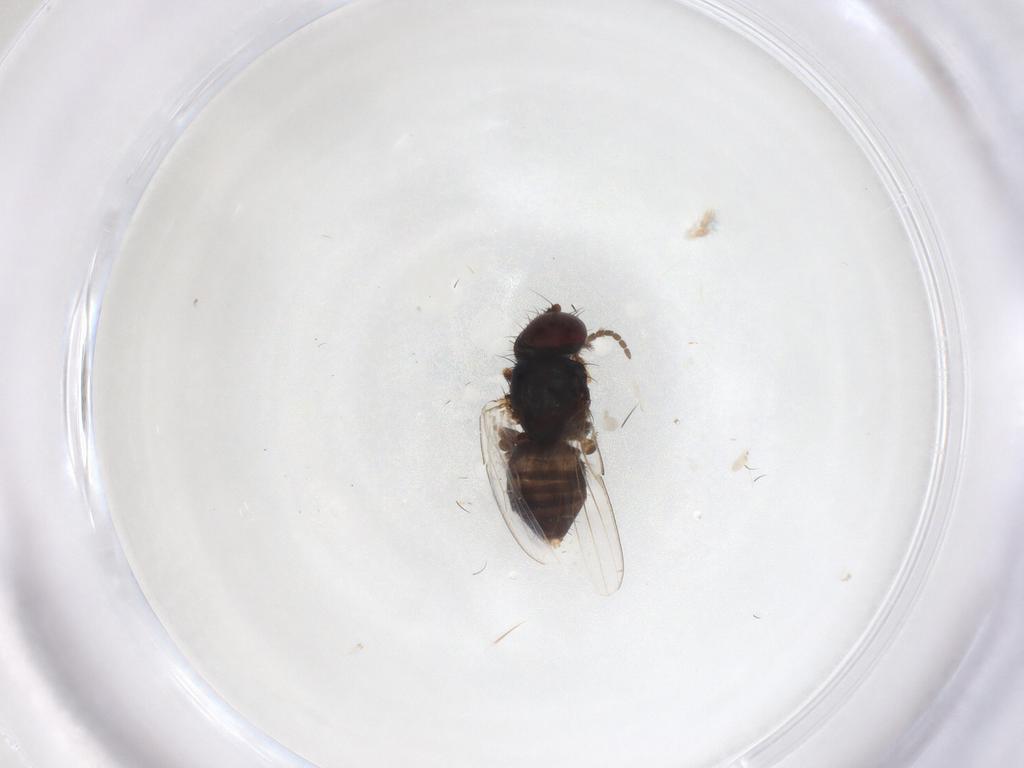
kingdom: Animalia
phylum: Arthropoda
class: Insecta
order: Diptera
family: Milichiidae
